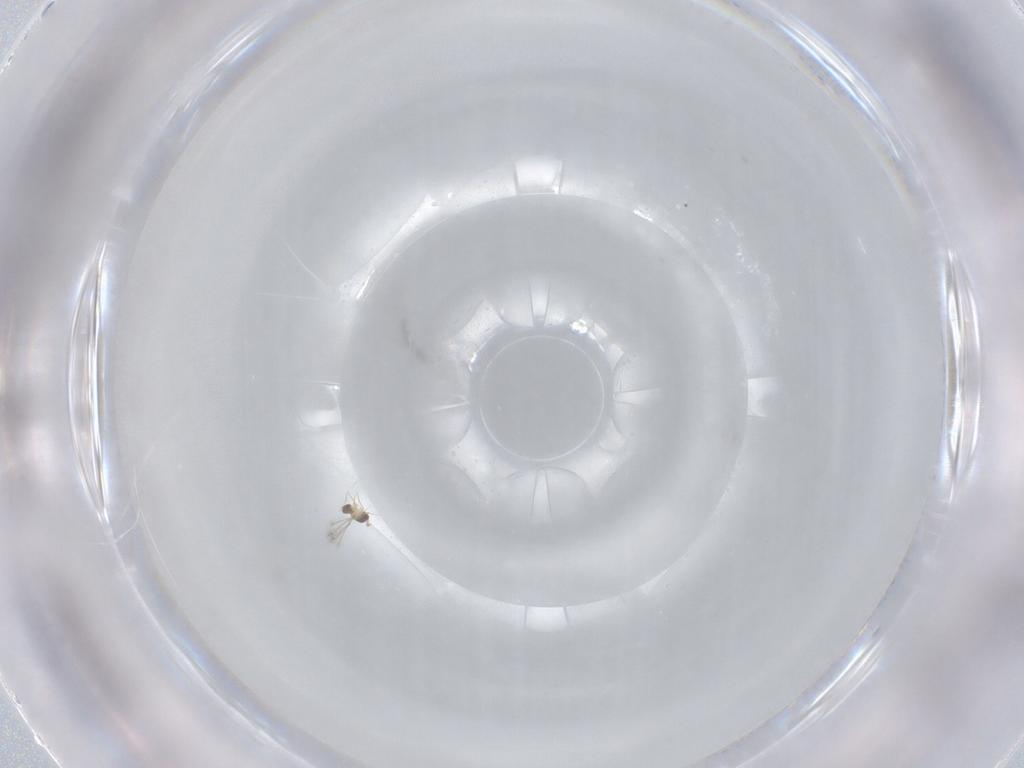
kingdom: Animalia
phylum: Arthropoda
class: Insecta
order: Hymenoptera
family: Mymaridae
